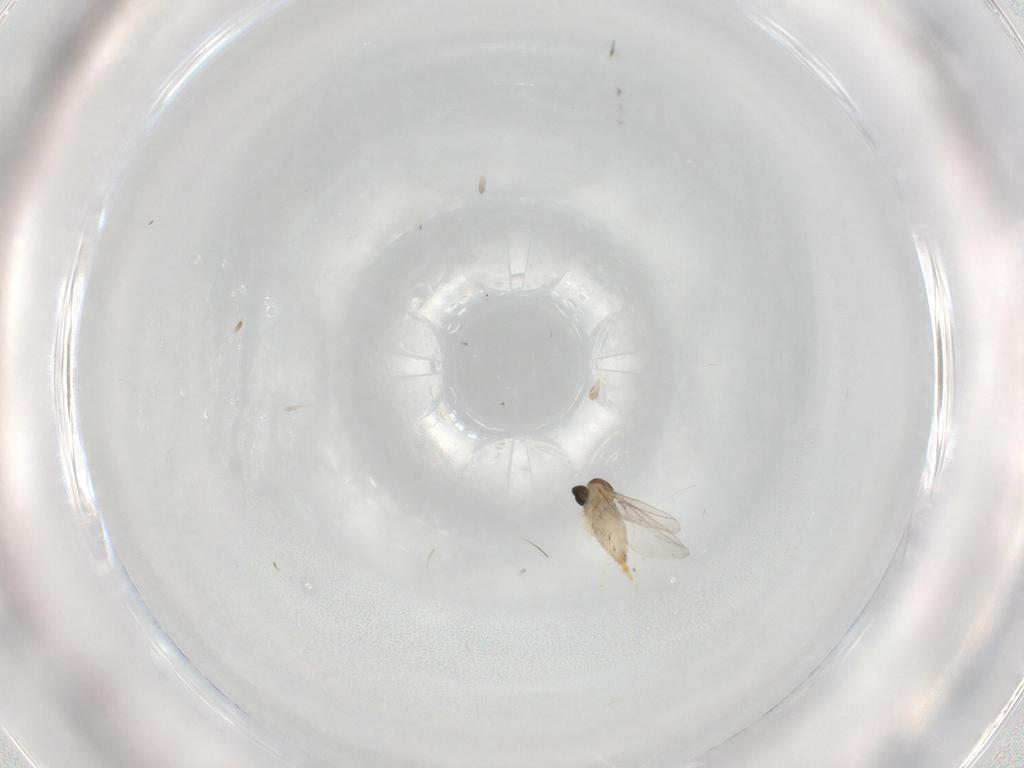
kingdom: Animalia
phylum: Arthropoda
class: Insecta
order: Diptera
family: Cecidomyiidae
